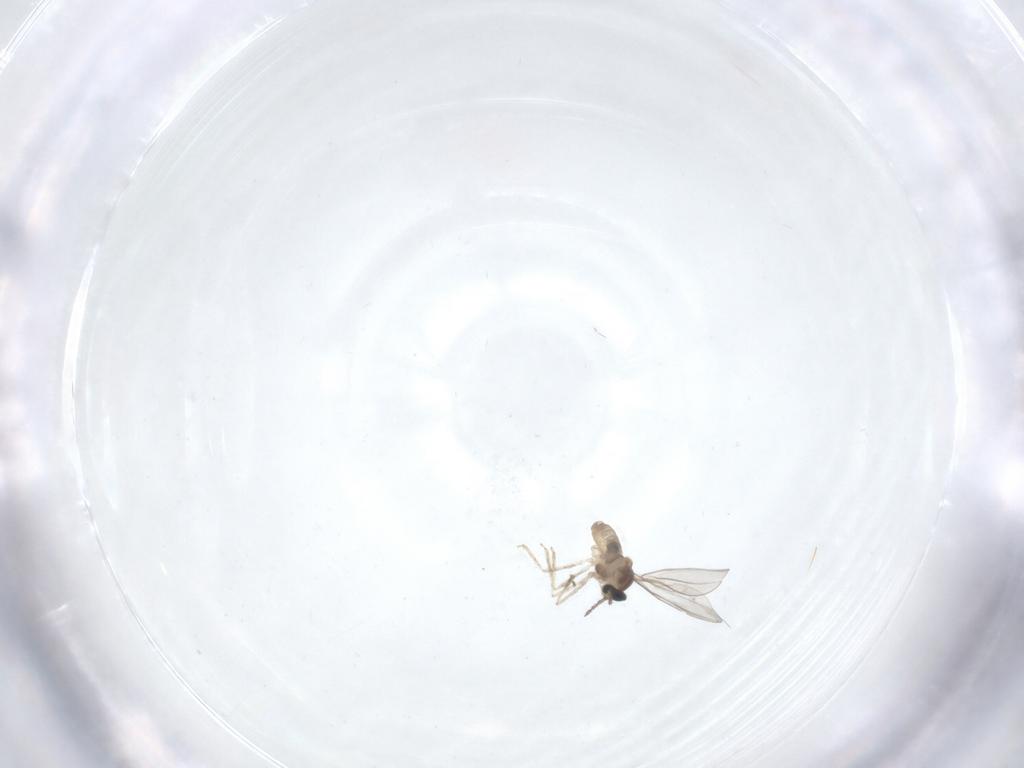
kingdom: Animalia
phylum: Arthropoda
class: Insecta
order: Diptera
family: Cecidomyiidae
